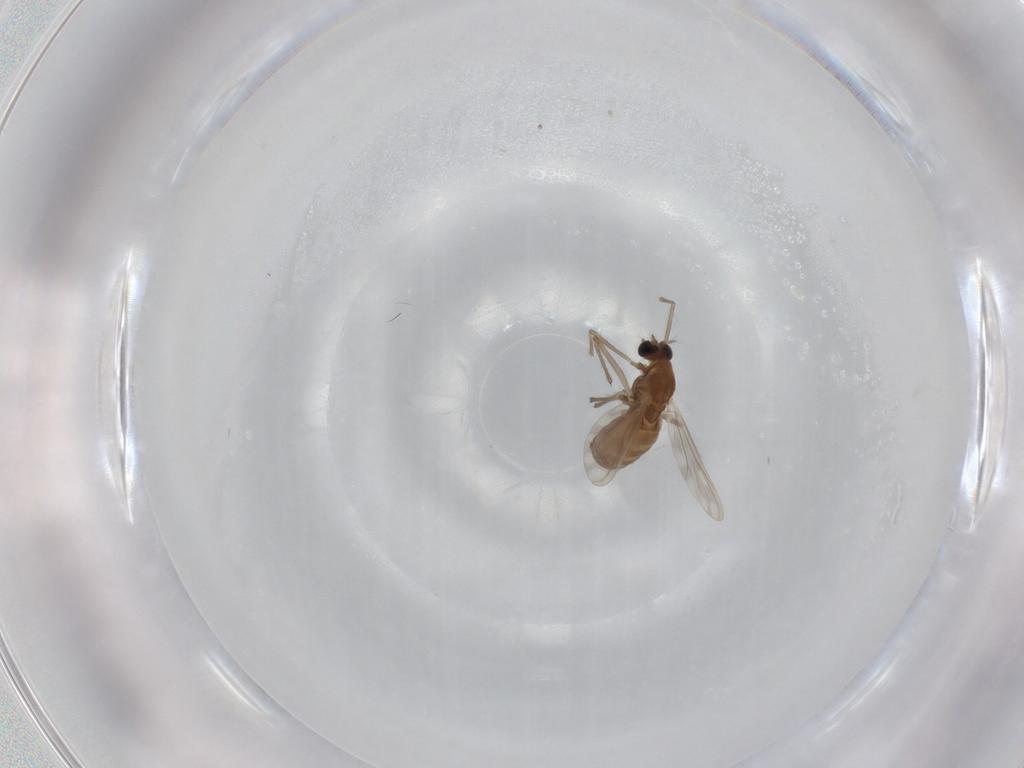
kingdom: Animalia
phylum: Arthropoda
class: Insecta
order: Diptera
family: Chironomidae
